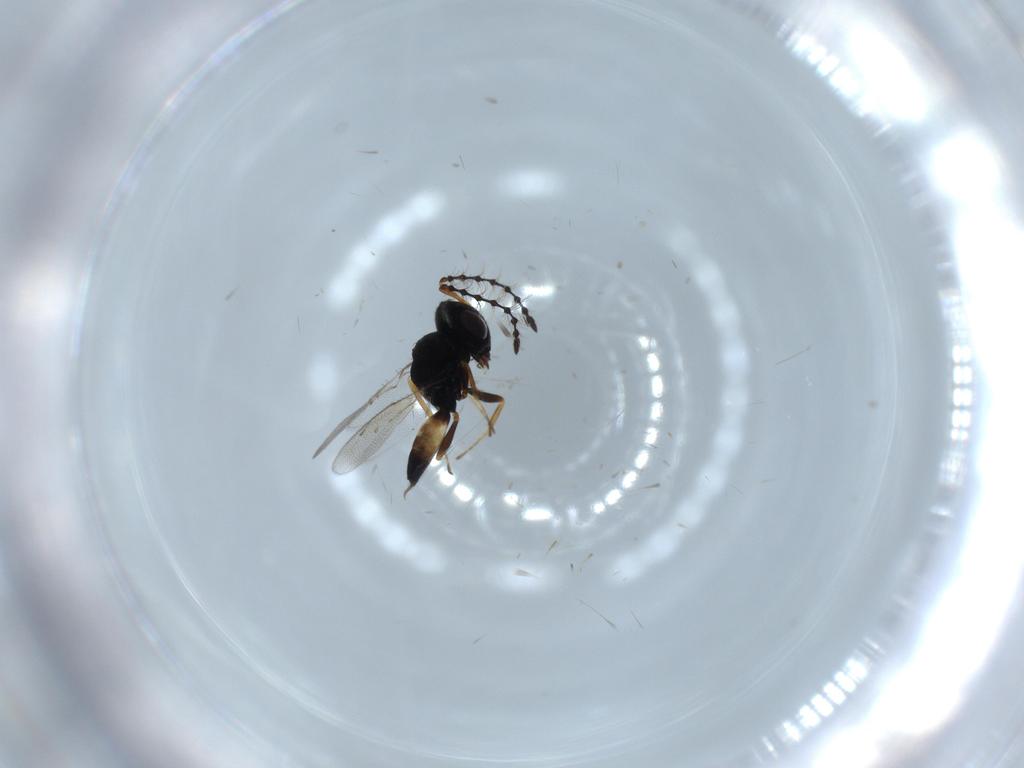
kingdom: Animalia
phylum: Arthropoda
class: Insecta
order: Hymenoptera
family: Pteromalidae
